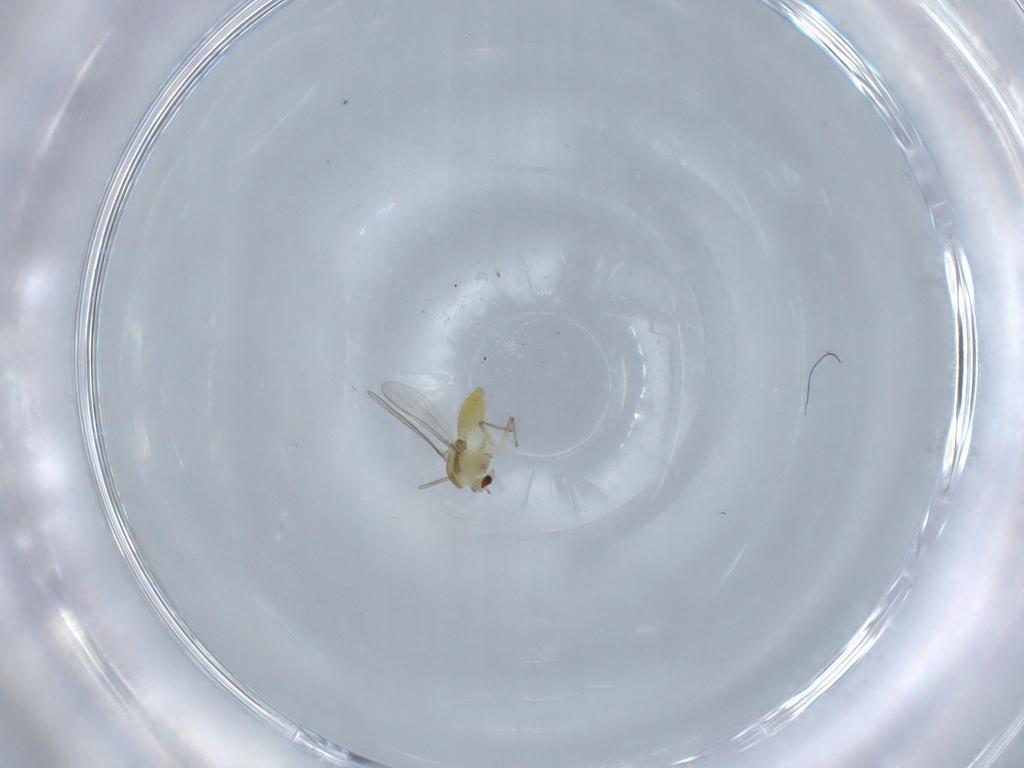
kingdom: Animalia
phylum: Arthropoda
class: Insecta
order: Diptera
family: Chironomidae
